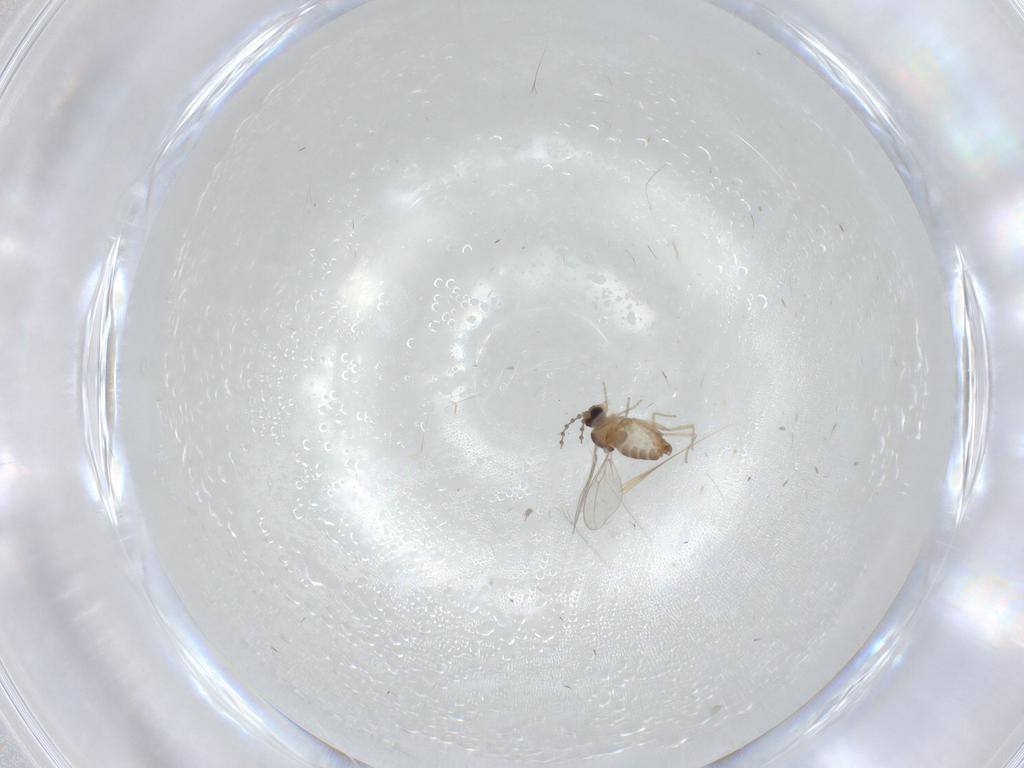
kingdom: Animalia
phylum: Arthropoda
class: Insecta
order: Diptera
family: Cecidomyiidae
